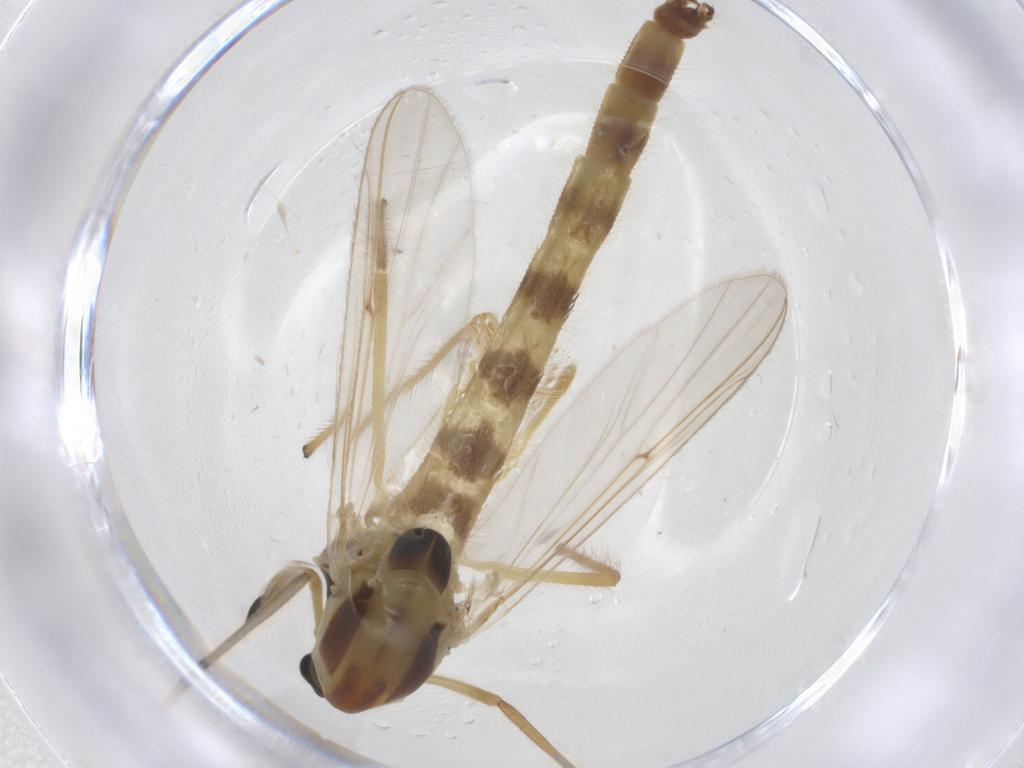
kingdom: Animalia
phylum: Arthropoda
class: Insecta
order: Diptera
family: Chironomidae
